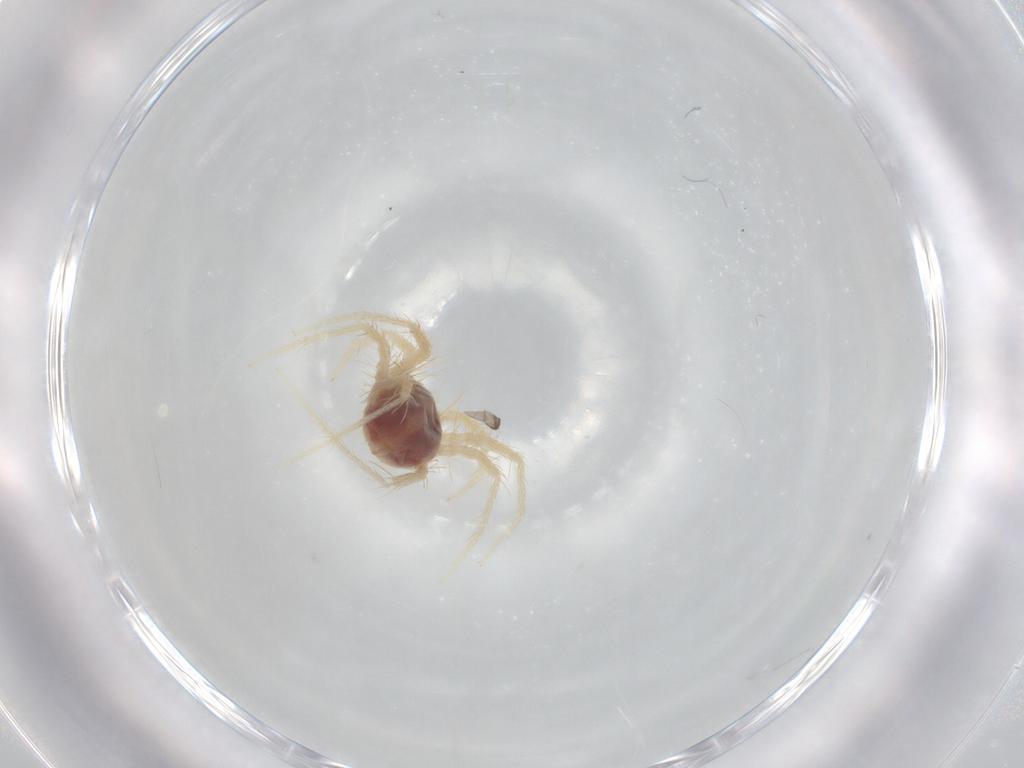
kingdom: Animalia
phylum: Arthropoda
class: Arachnida
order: Trombidiformes
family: Anystidae
